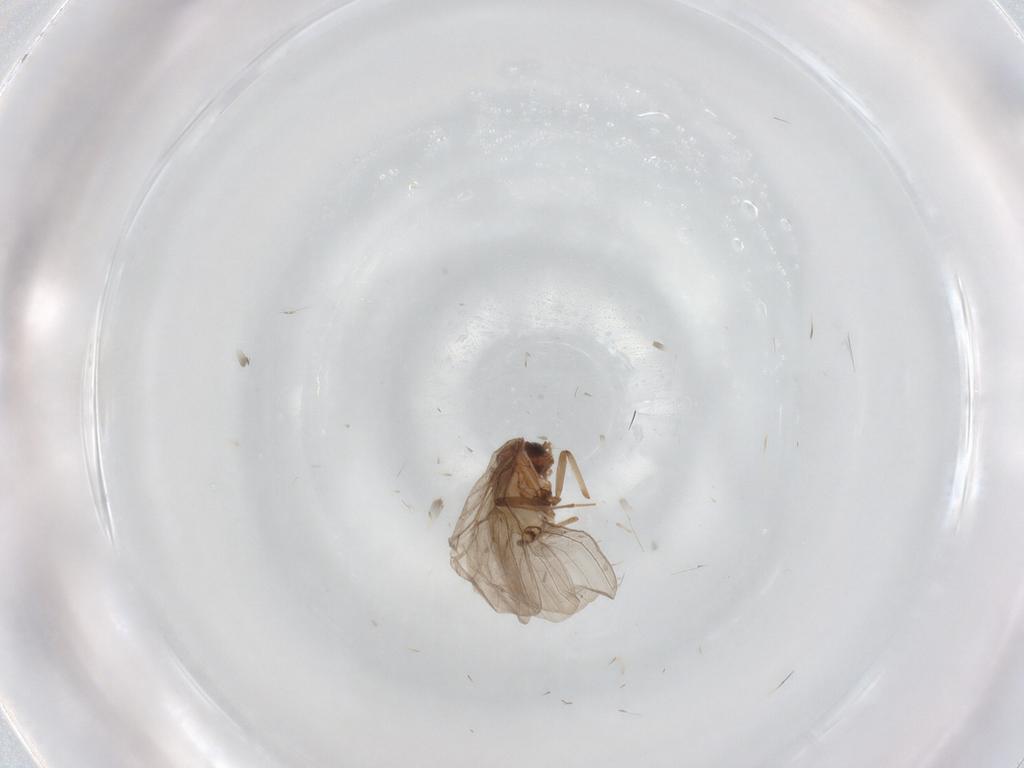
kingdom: Animalia
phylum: Arthropoda
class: Insecta
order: Neuroptera
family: Coniopterygidae
